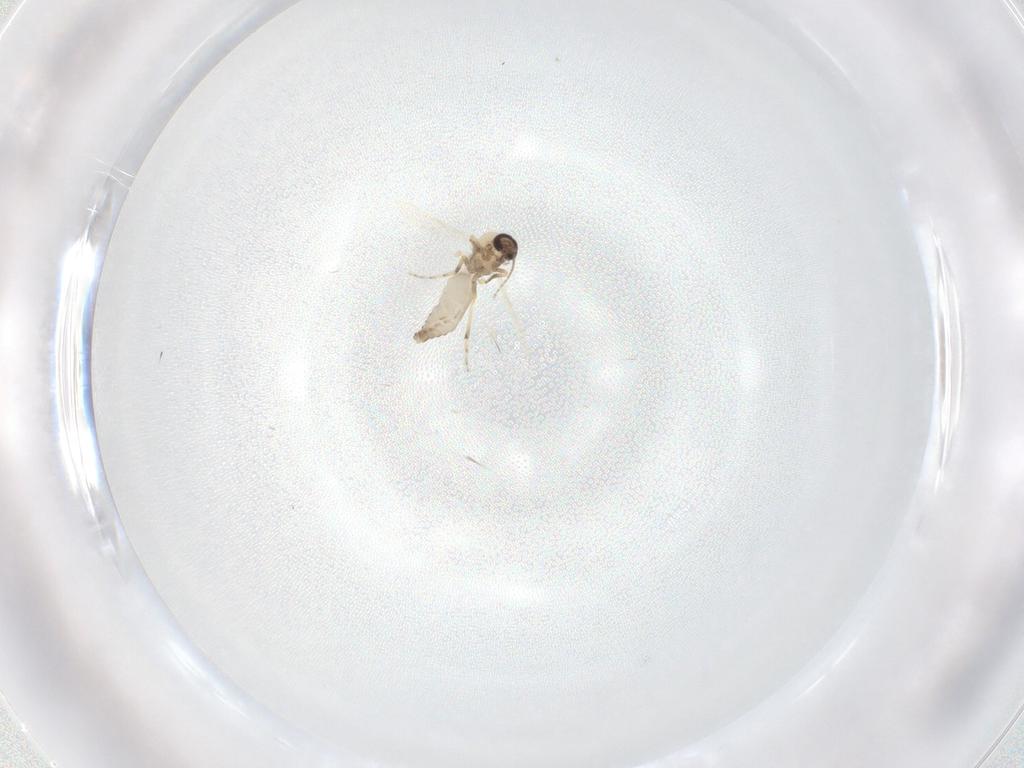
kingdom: Animalia
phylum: Arthropoda
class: Insecta
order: Diptera
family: Ceratopogonidae
